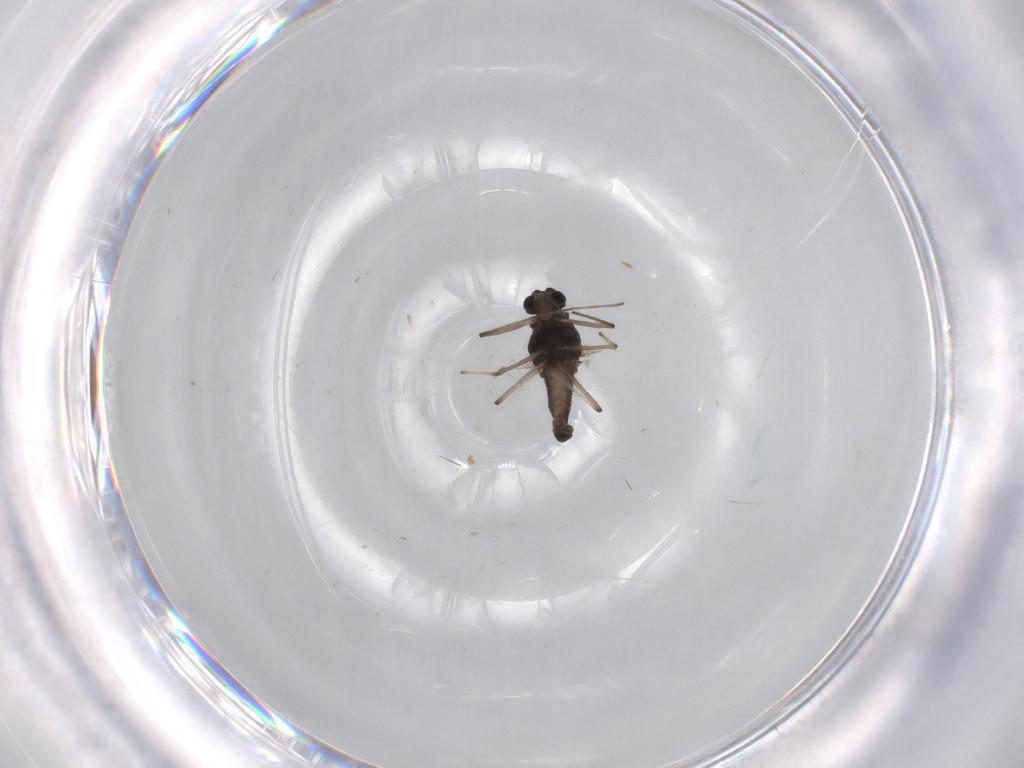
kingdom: Animalia
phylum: Arthropoda
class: Insecta
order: Diptera
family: Chironomidae
